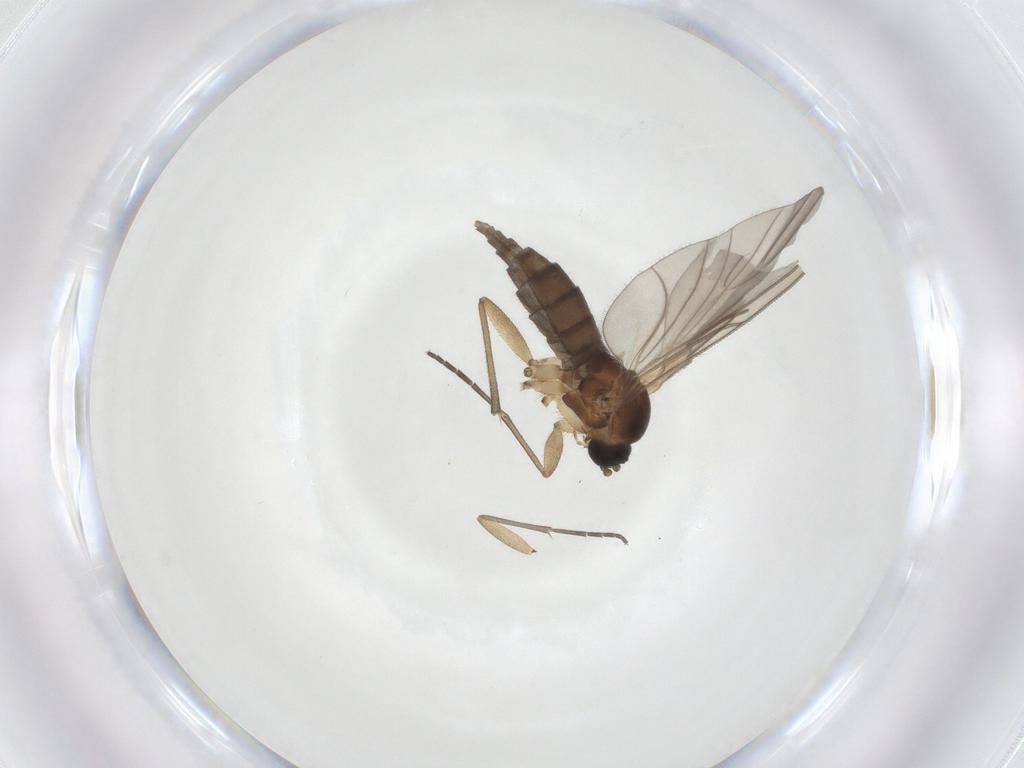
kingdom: Animalia
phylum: Arthropoda
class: Insecta
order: Diptera
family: Sciaridae
